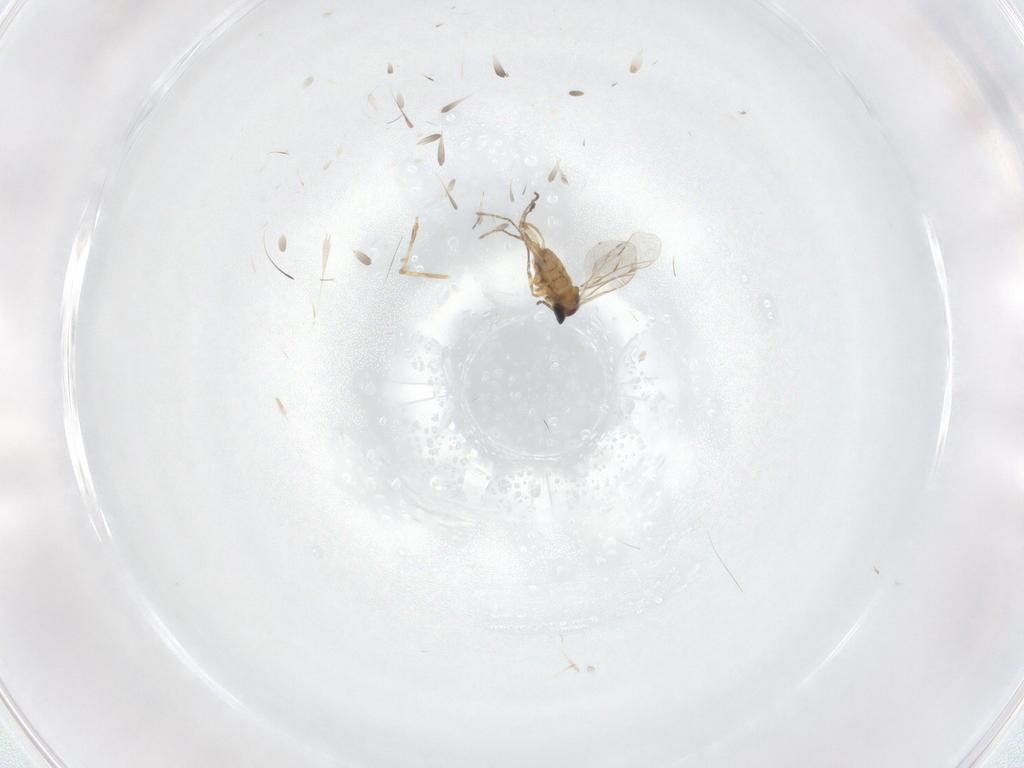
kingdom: Animalia
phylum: Arthropoda
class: Insecta
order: Diptera
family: Cecidomyiidae
